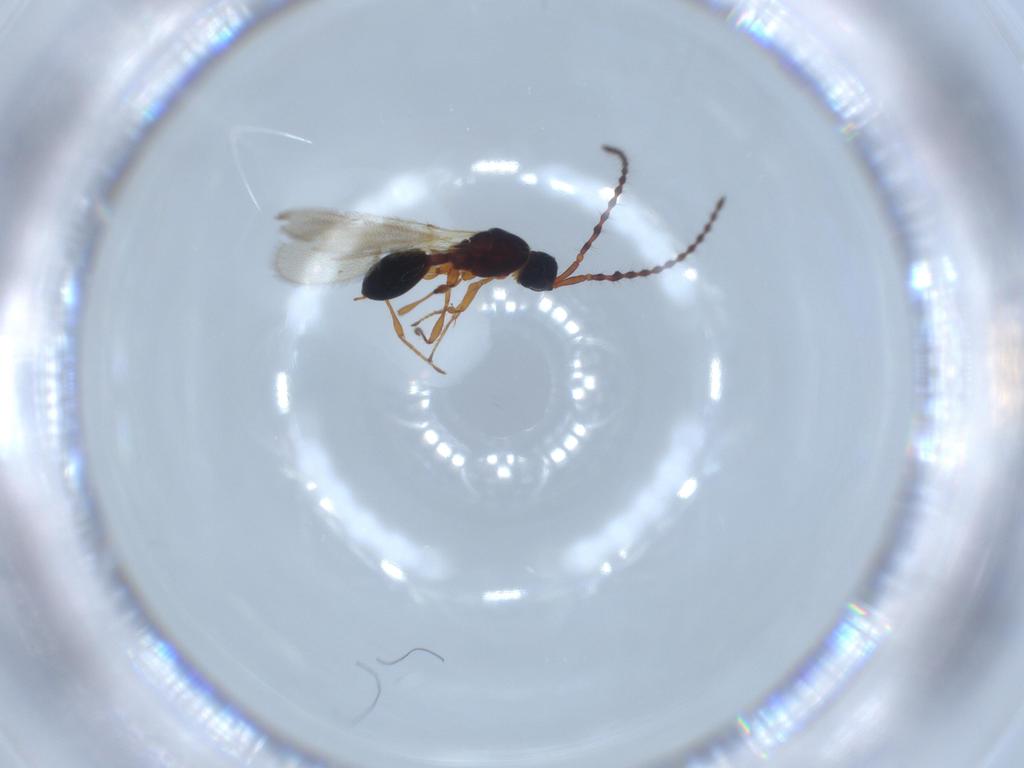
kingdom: Animalia
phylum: Arthropoda
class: Insecta
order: Hymenoptera
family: Diapriidae
